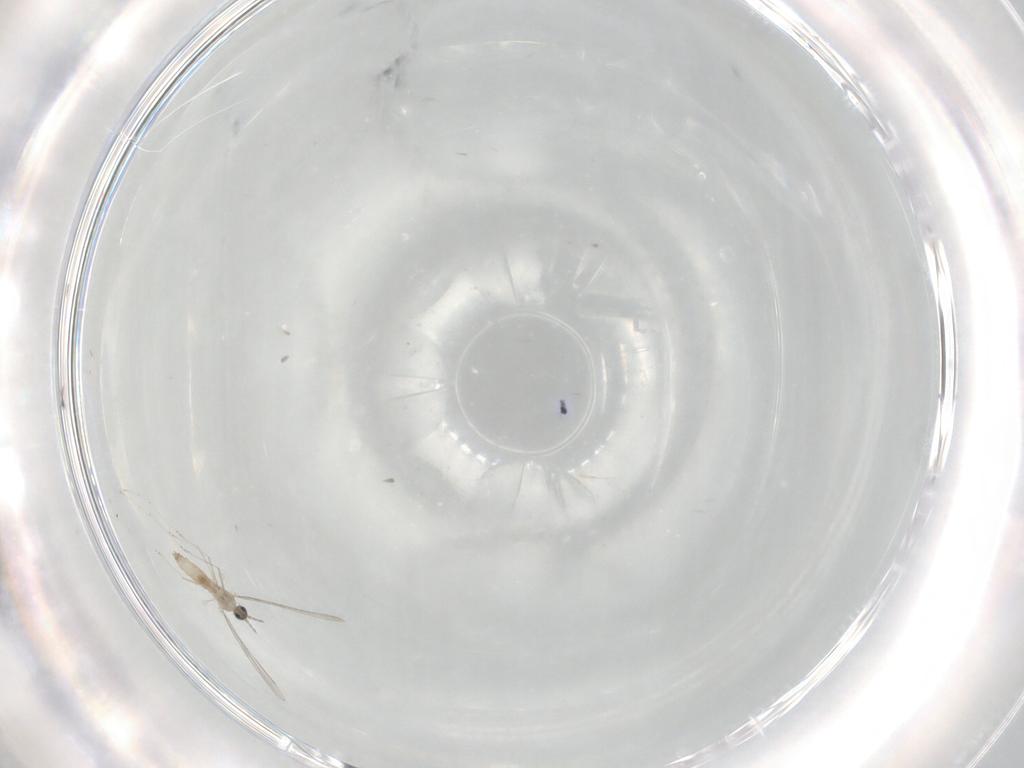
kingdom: Animalia
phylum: Arthropoda
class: Insecta
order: Diptera
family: Cecidomyiidae
